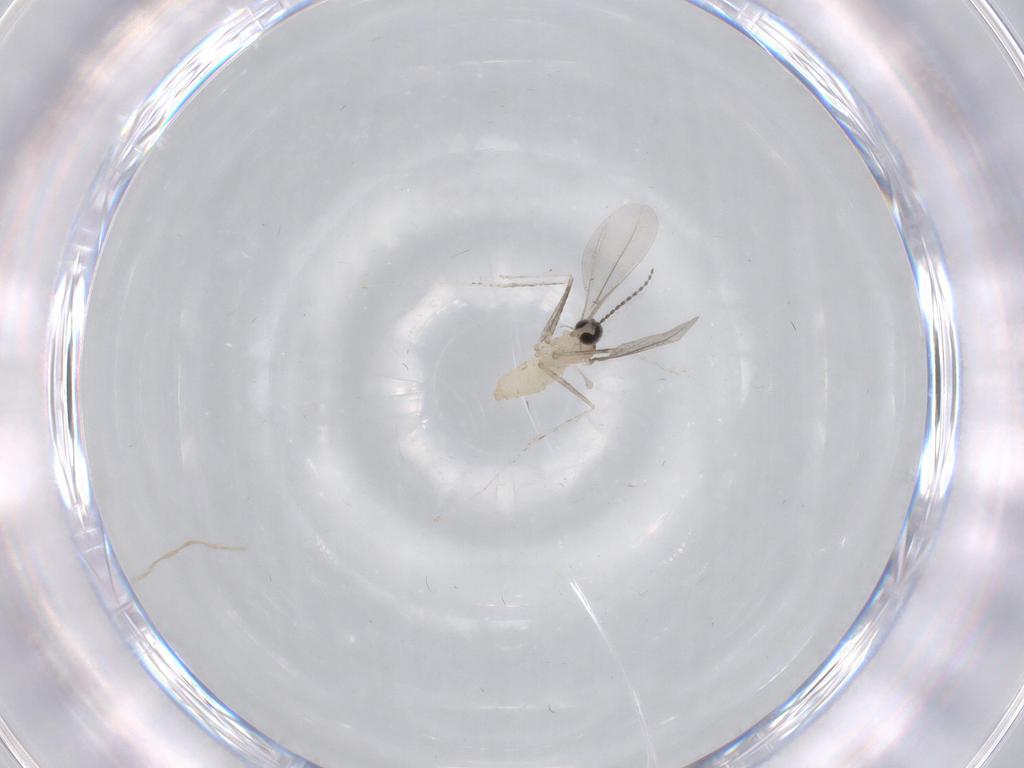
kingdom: Animalia
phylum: Arthropoda
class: Insecta
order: Diptera
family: Cecidomyiidae
